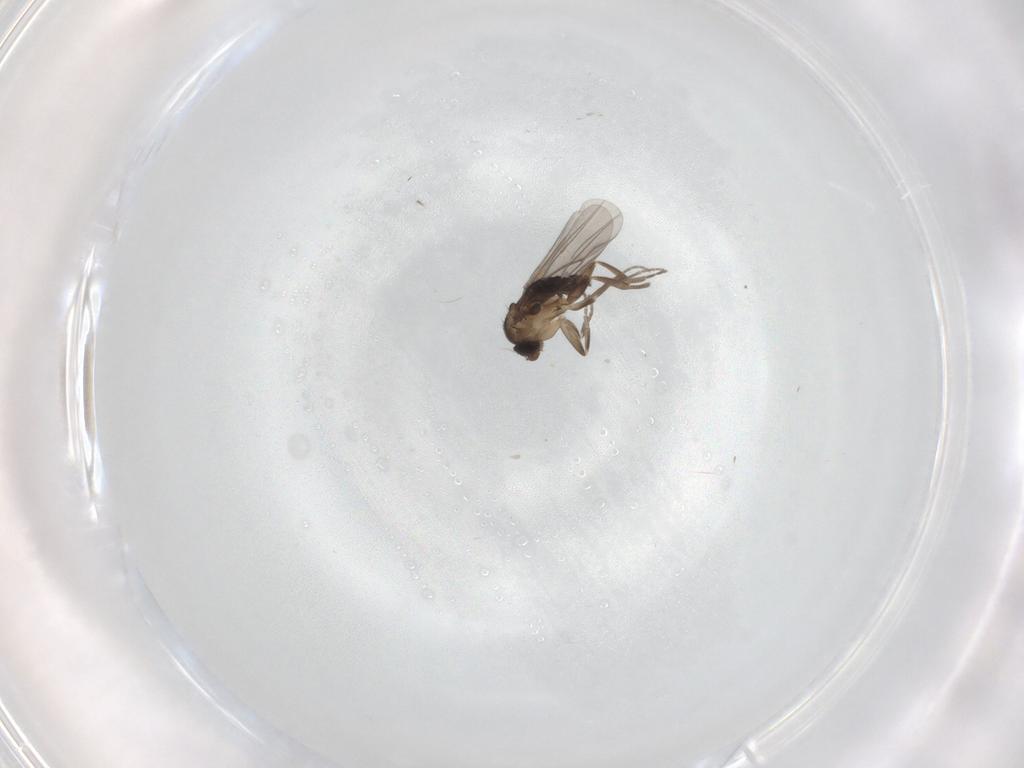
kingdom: Animalia
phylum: Arthropoda
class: Insecta
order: Diptera
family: Phoridae
